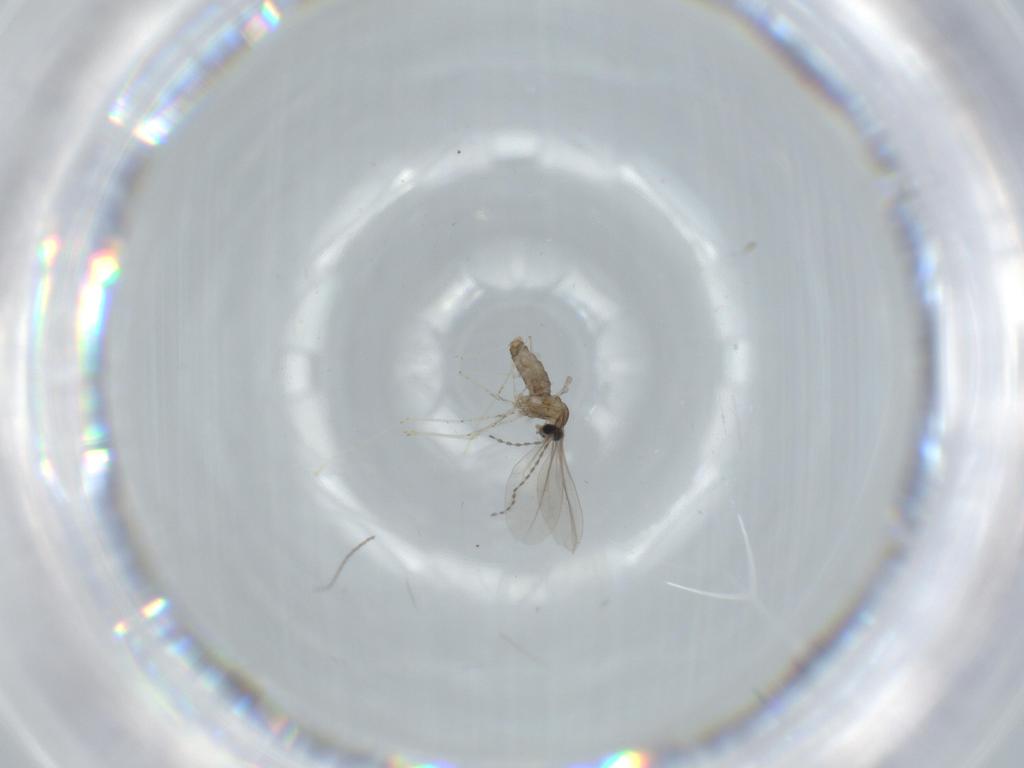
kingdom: Animalia
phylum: Arthropoda
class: Insecta
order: Diptera
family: Cecidomyiidae
